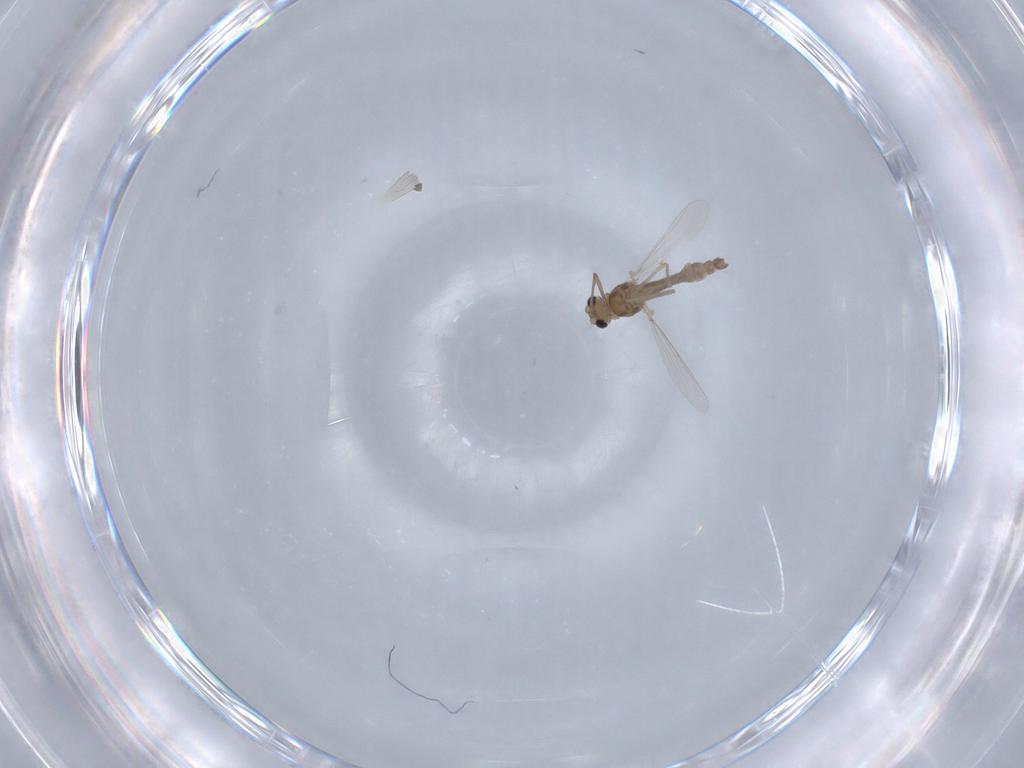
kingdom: Animalia
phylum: Arthropoda
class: Insecta
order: Diptera
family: Chironomidae
